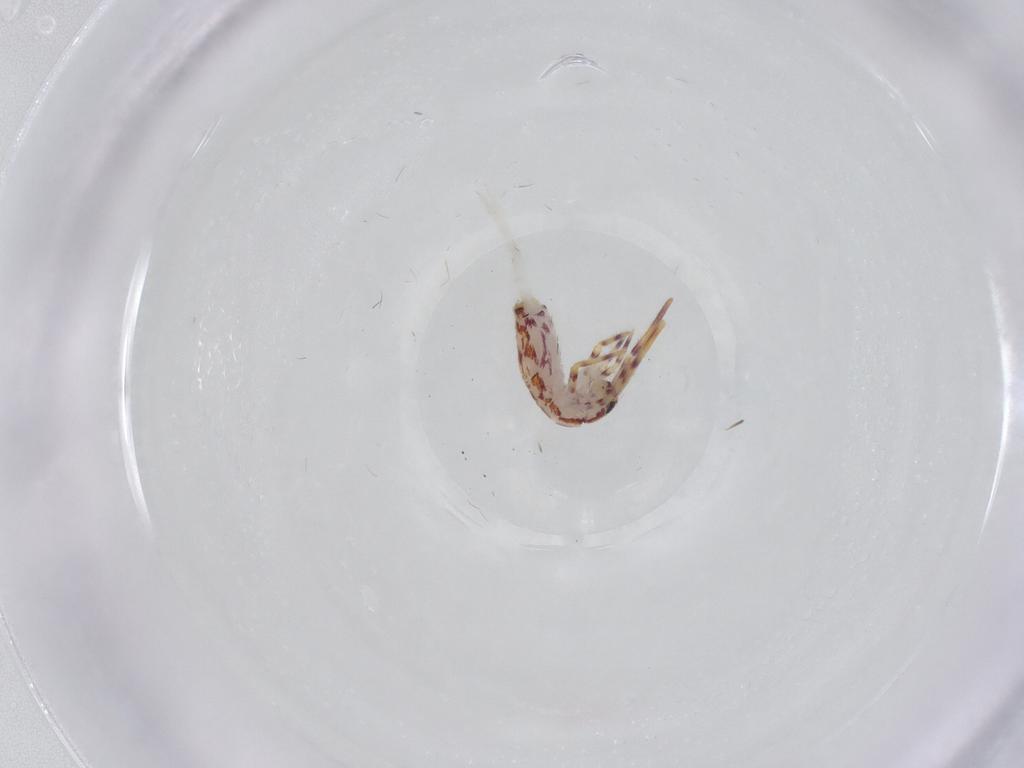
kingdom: Animalia
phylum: Arthropoda
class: Collembola
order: Entomobryomorpha
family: Entomobryidae
